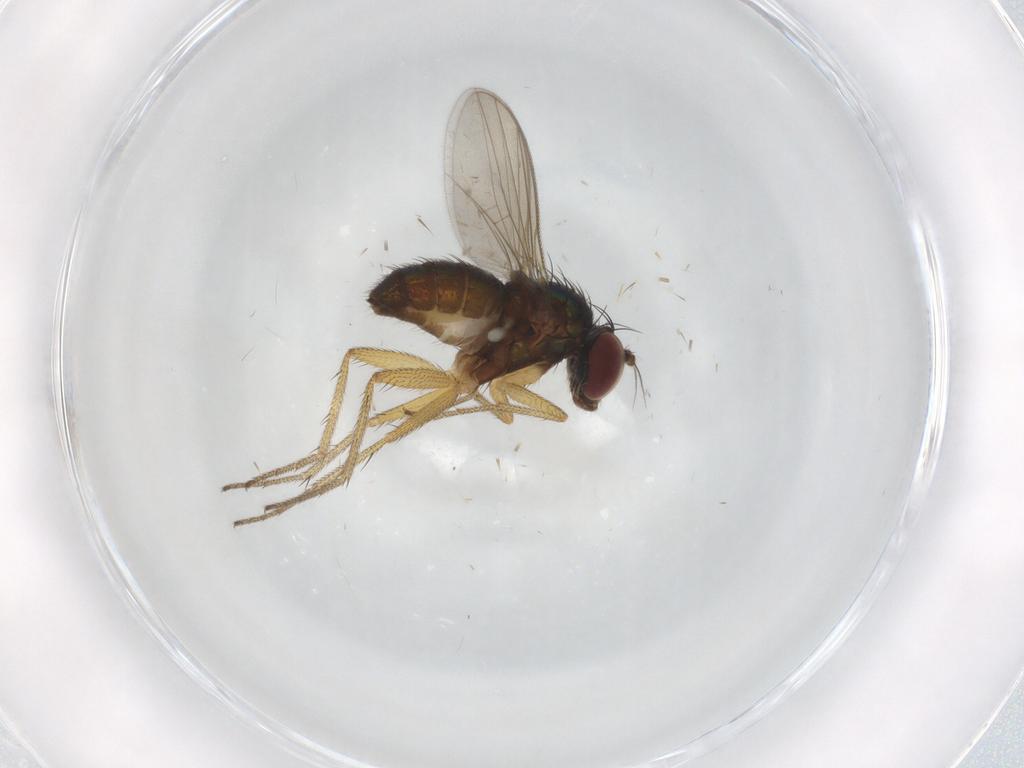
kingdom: Animalia
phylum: Arthropoda
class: Insecta
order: Diptera
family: Dolichopodidae
